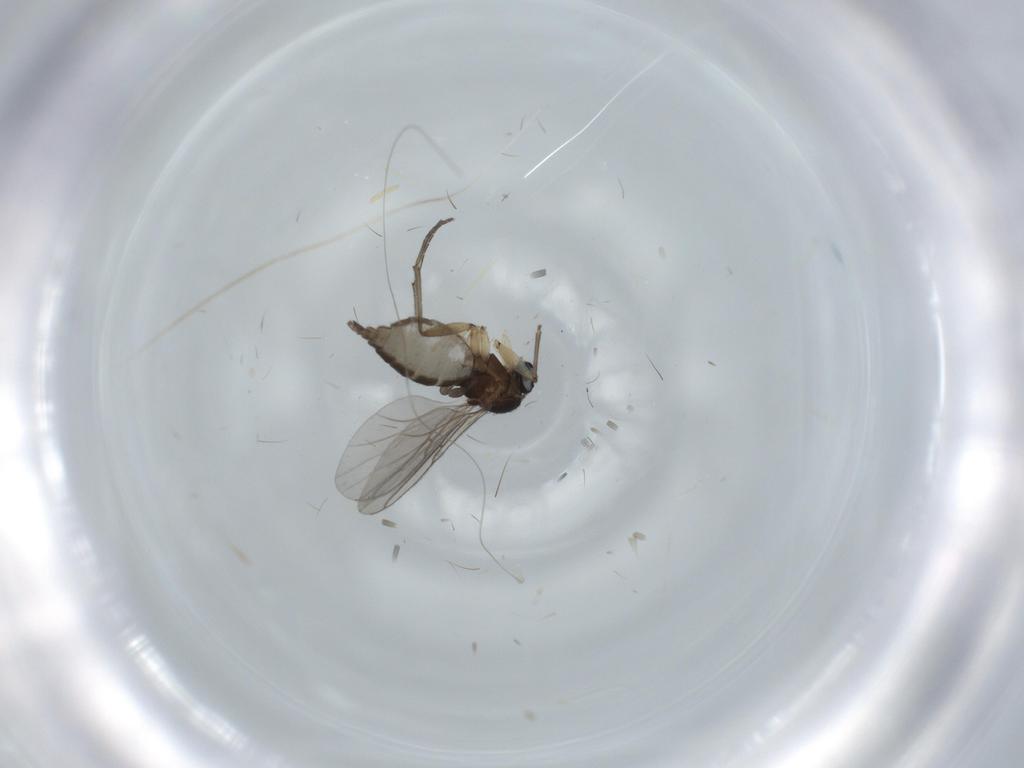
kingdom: Animalia
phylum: Arthropoda
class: Insecta
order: Diptera
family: Sciaridae
